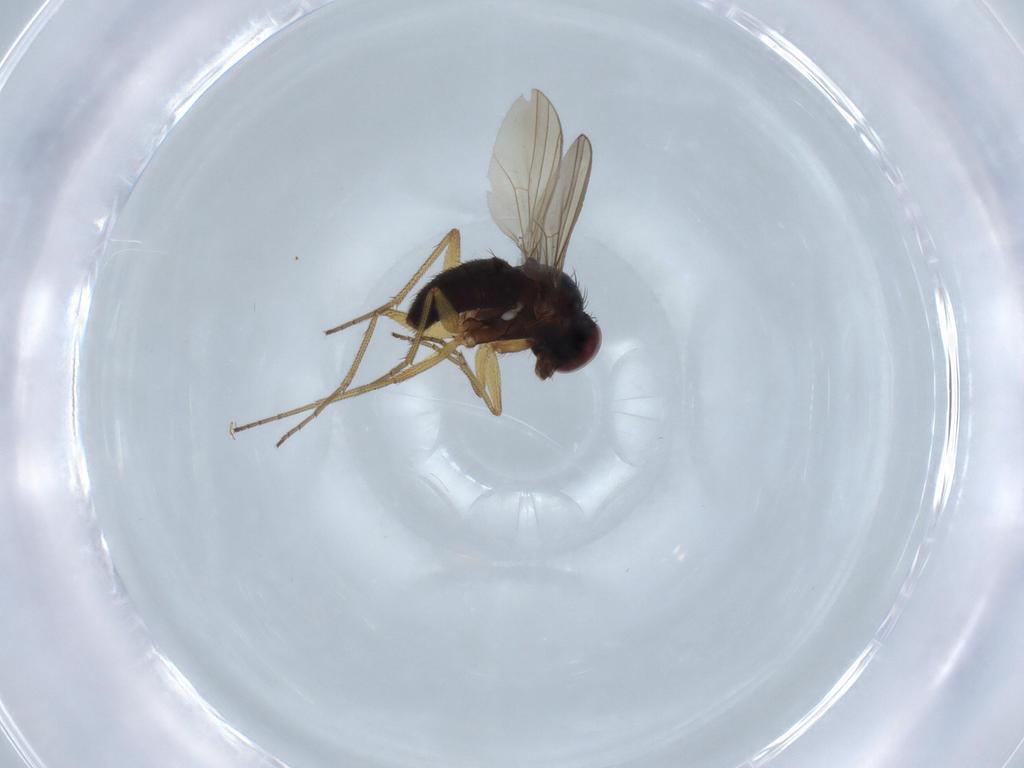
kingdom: Animalia
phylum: Arthropoda
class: Insecta
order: Diptera
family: Dolichopodidae
